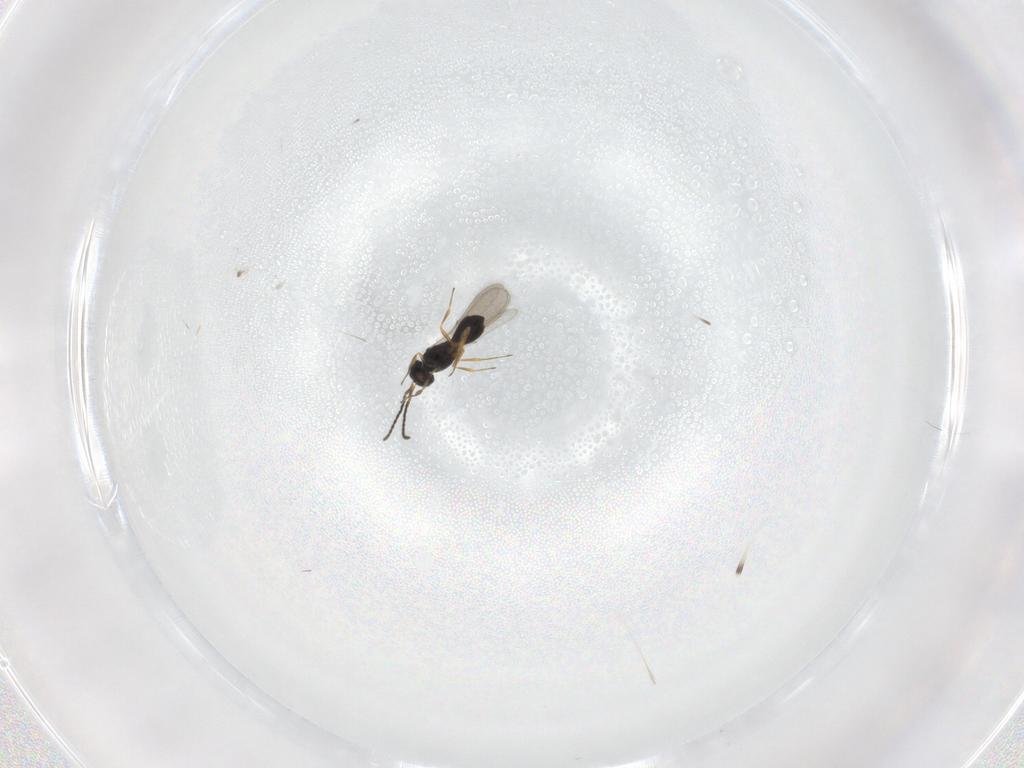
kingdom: Animalia
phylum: Arthropoda
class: Insecta
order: Hymenoptera
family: Scelionidae
